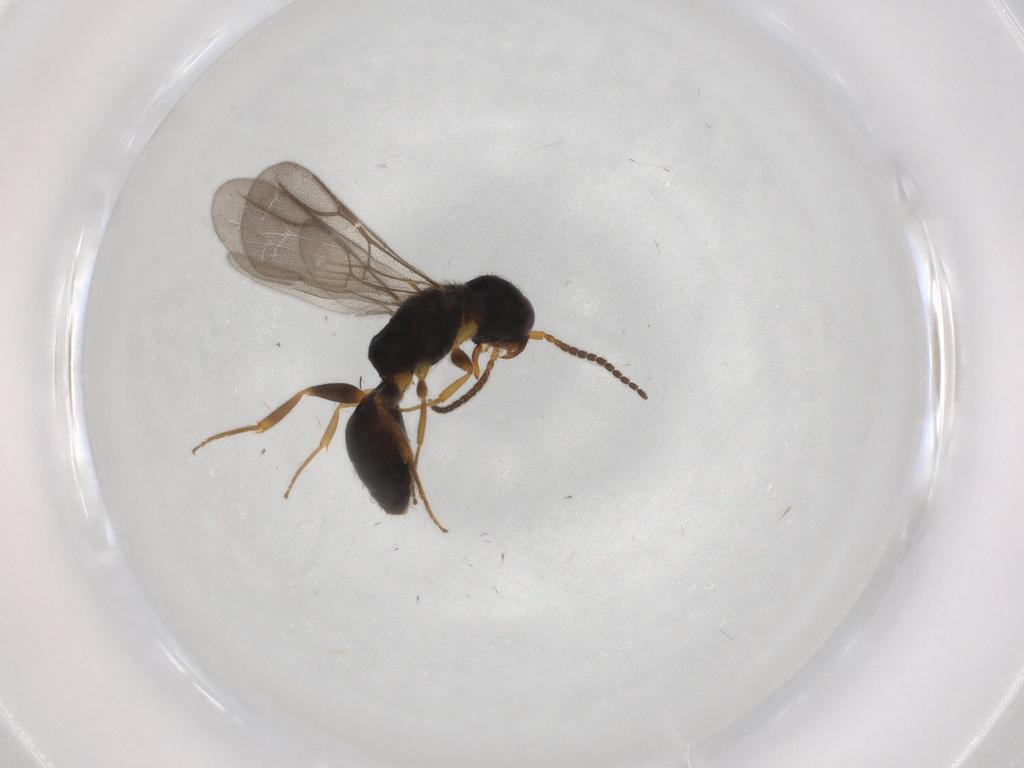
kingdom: Animalia
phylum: Arthropoda
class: Insecta
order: Hymenoptera
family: Bethylidae
